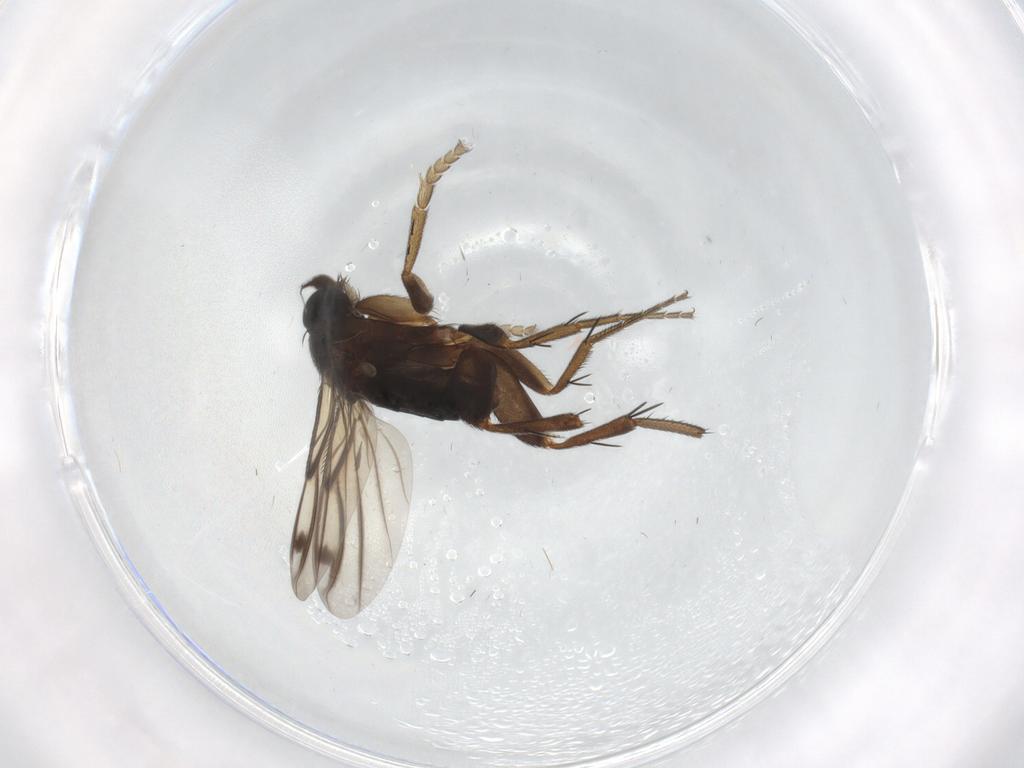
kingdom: Animalia
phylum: Arthropoda
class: Insecta
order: Diptera
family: Phoridae
